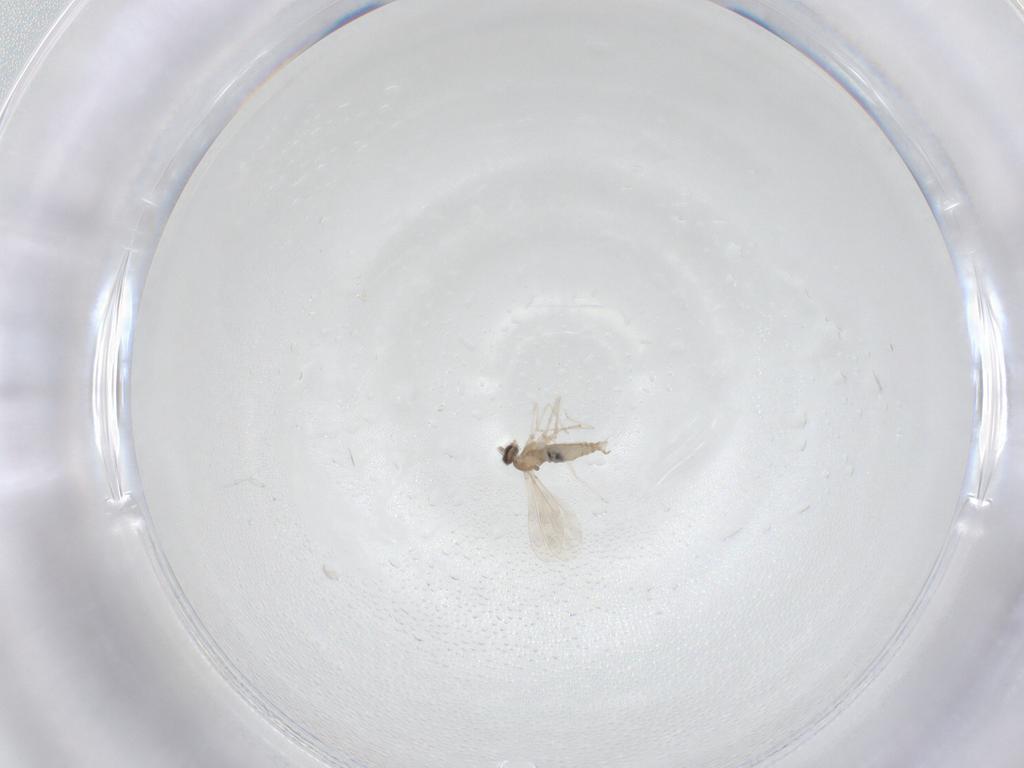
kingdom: Animalia
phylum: Arthropoda
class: Insecta
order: Diptera
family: Cecidomyiidae
